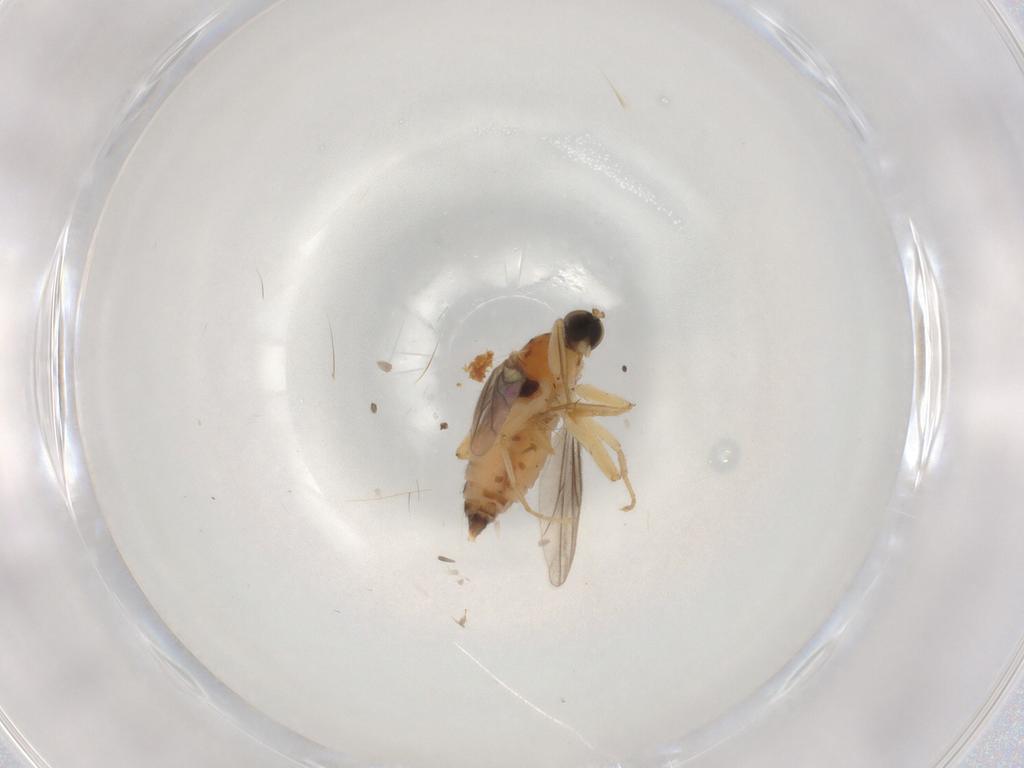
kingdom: Animalia
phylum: Arthropoda
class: Insecta
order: Diptera
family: Hybotidae
